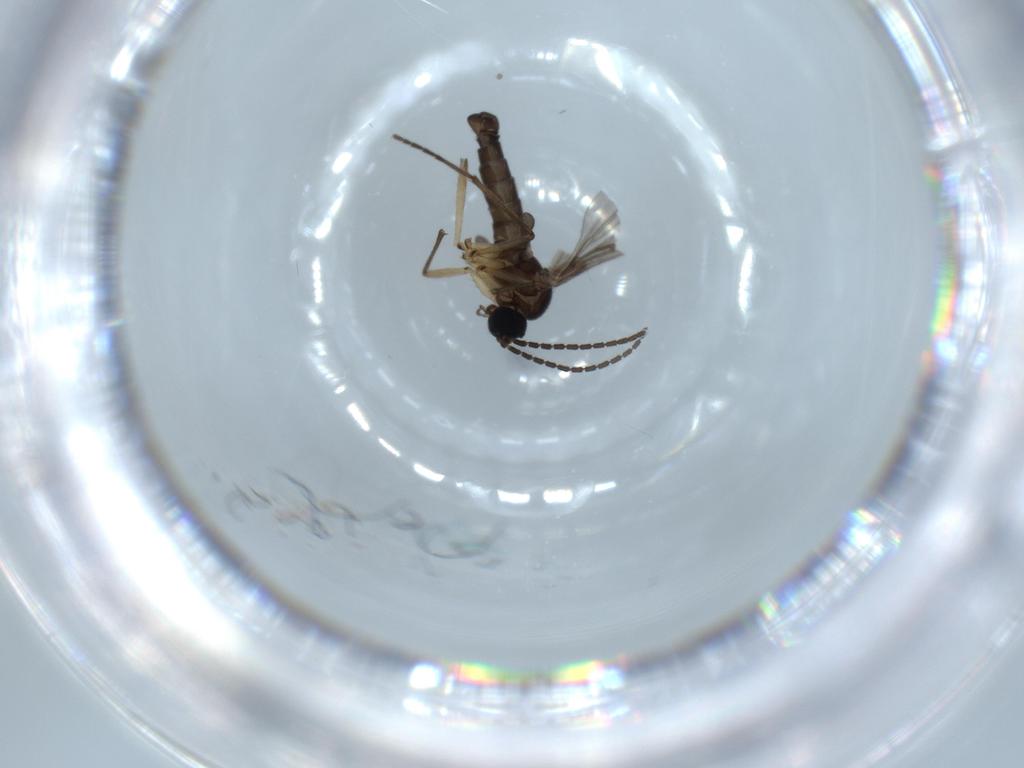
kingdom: Animalia
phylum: Arthropoda
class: Insecta
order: Diptera
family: Sciaridae
